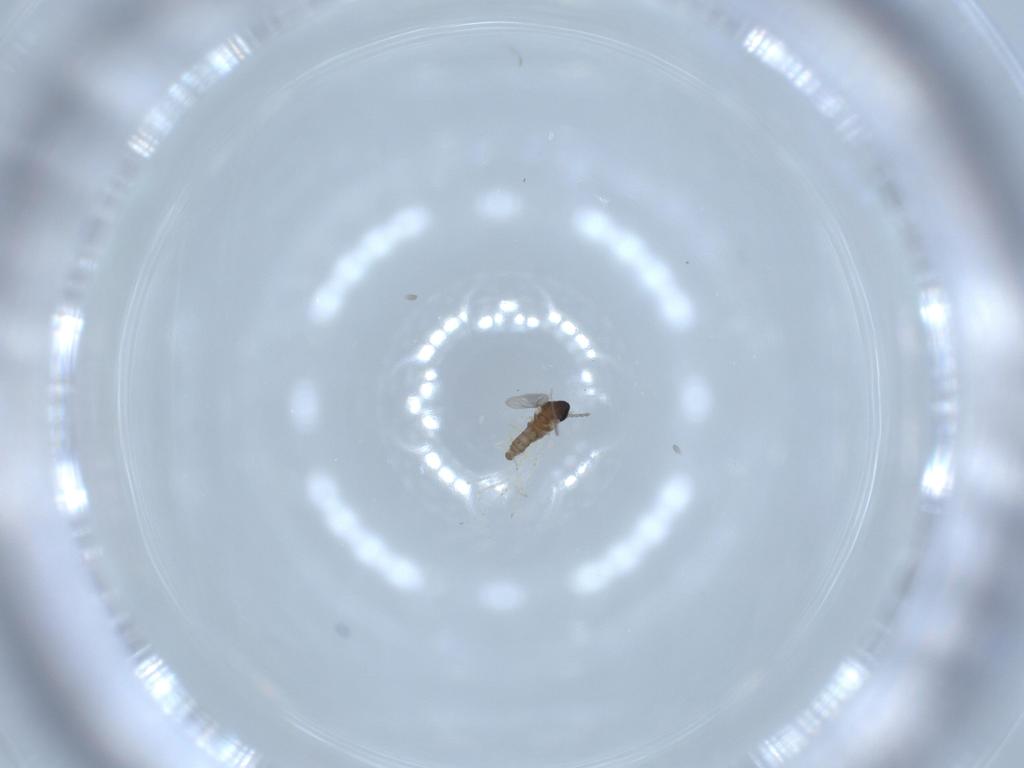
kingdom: Animalia
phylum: Arthropoda
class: Insecta
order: Diptera
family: Cecidomyiidae
